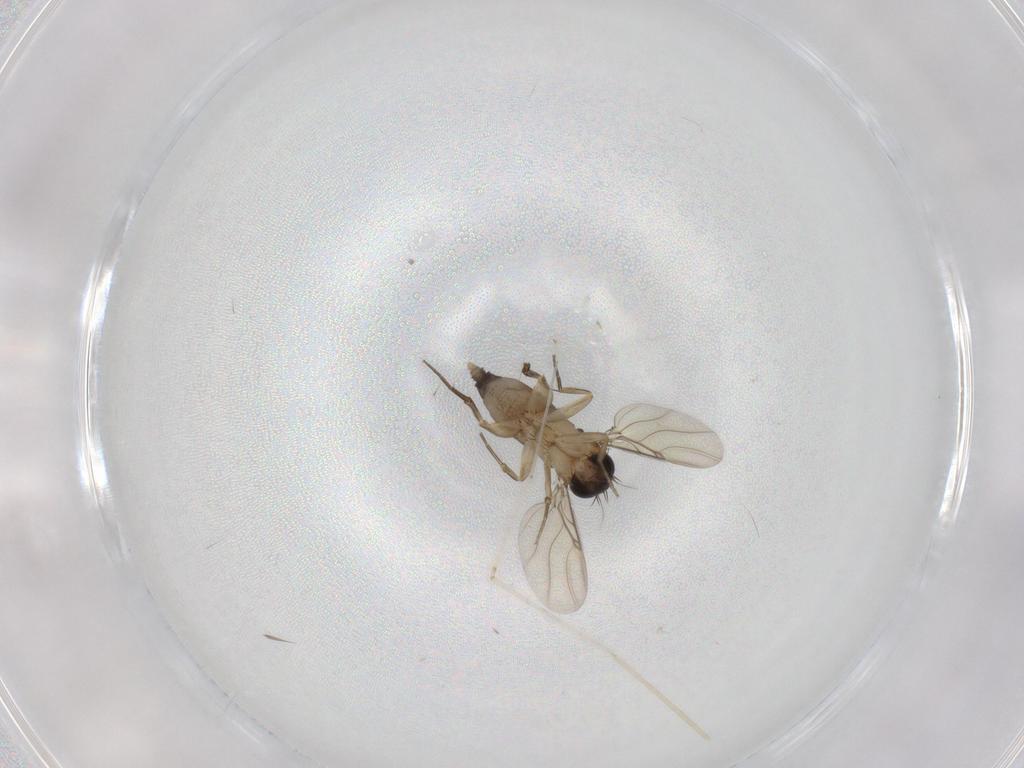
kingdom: Animalia
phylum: Arthropoda
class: Insecta
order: Diptera
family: Phoridae
